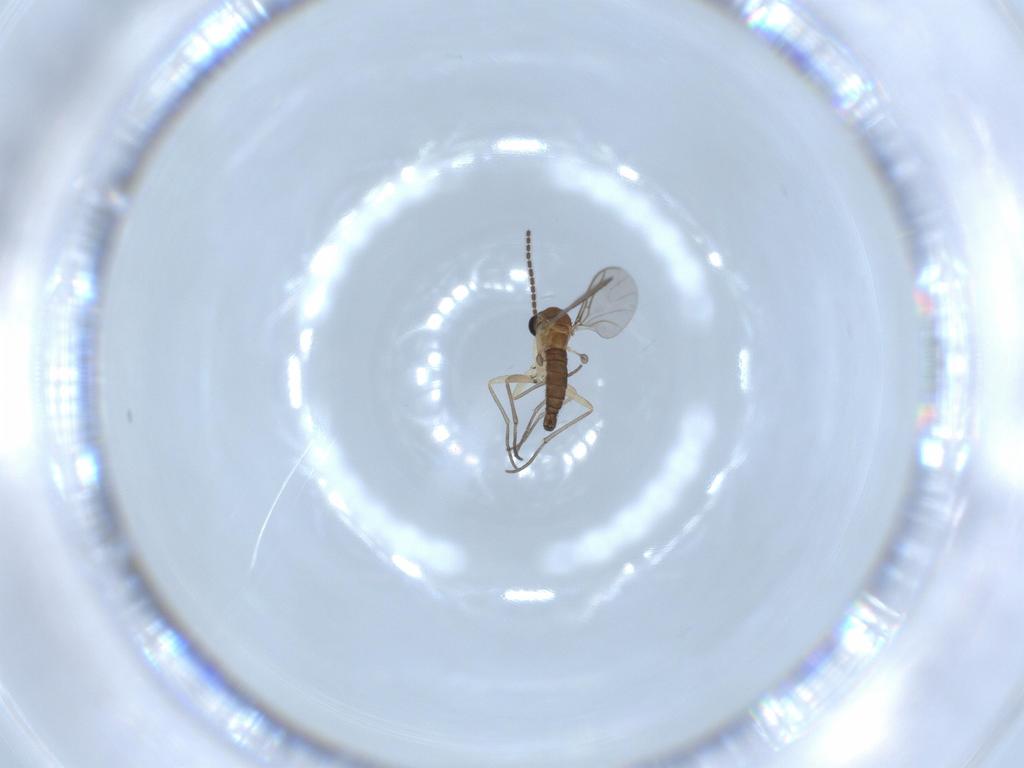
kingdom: Animalia
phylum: Arthropoda
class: Insecta
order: Diptera
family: Sciaridae
